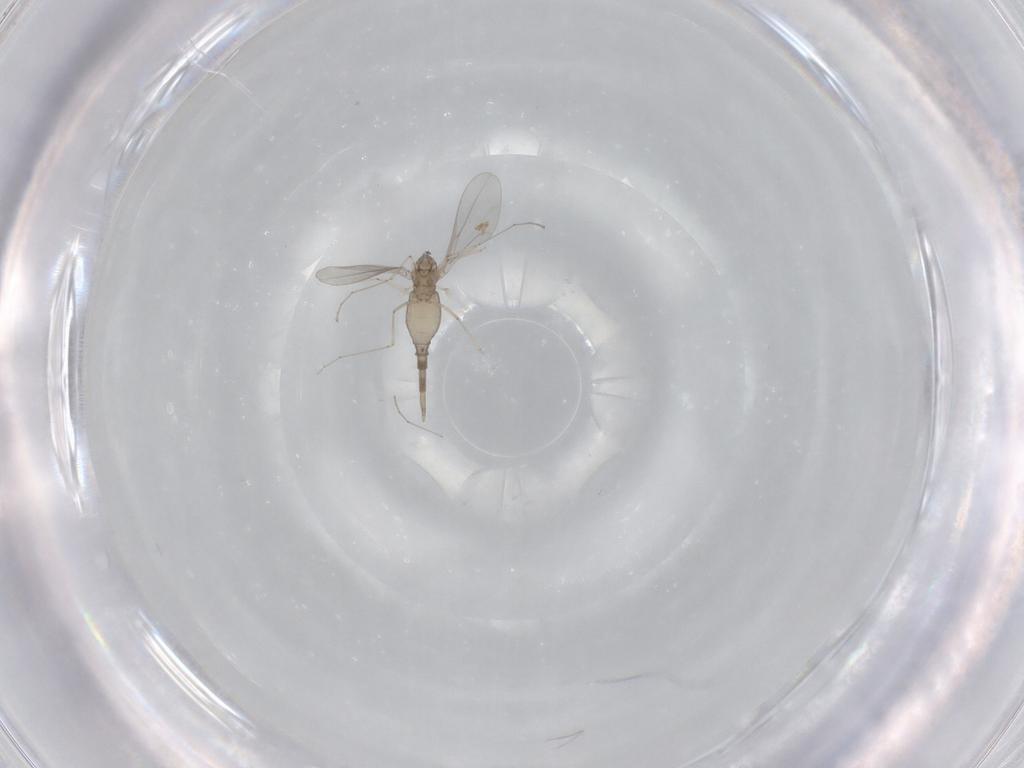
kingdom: Animalia
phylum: Arthropoda
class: Insecta
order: Diptera
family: Cecidomyiidae
